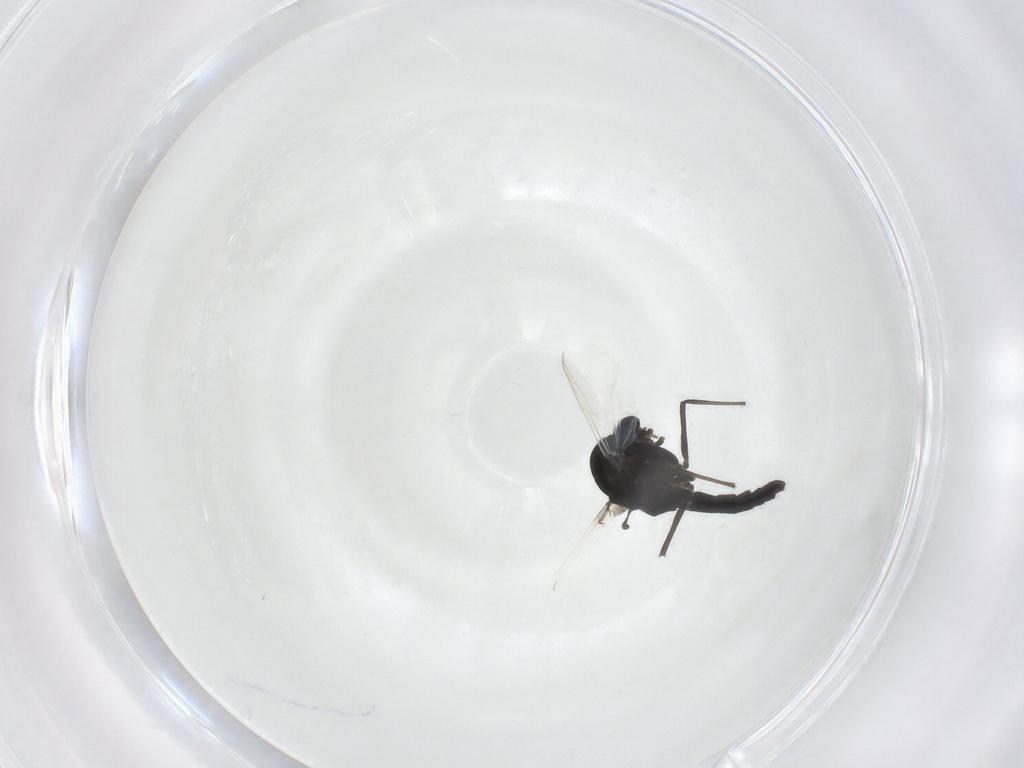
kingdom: Animalia
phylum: Arthropoda
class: Insecta
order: Diptera
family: Chironomidae
